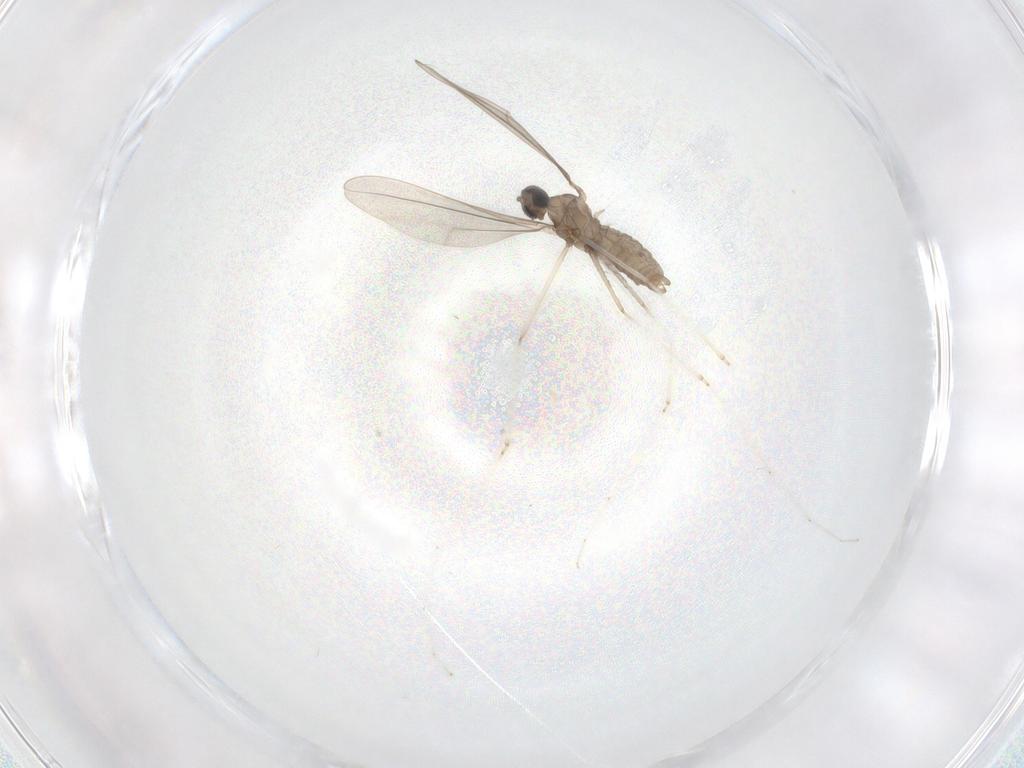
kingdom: Animalia
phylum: Arthropoda
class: Insecta
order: Diptera
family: Cecidomyiidae
